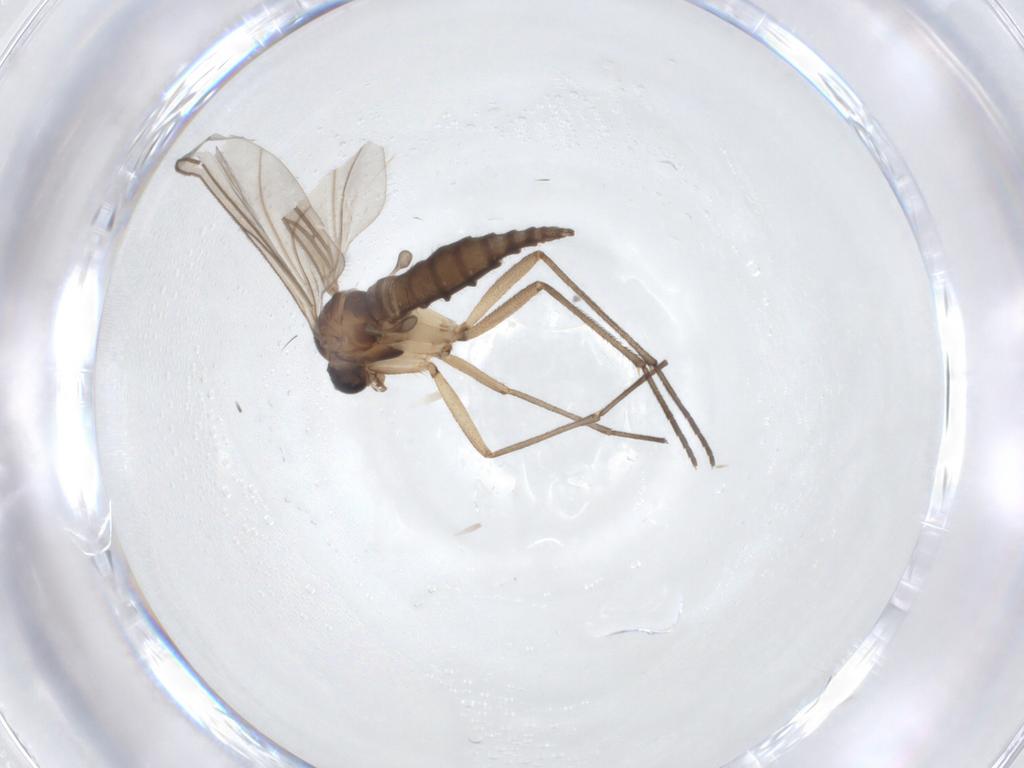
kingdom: Animalia
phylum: Arthropoda
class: Insecta
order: Diptera
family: Sciaridae
